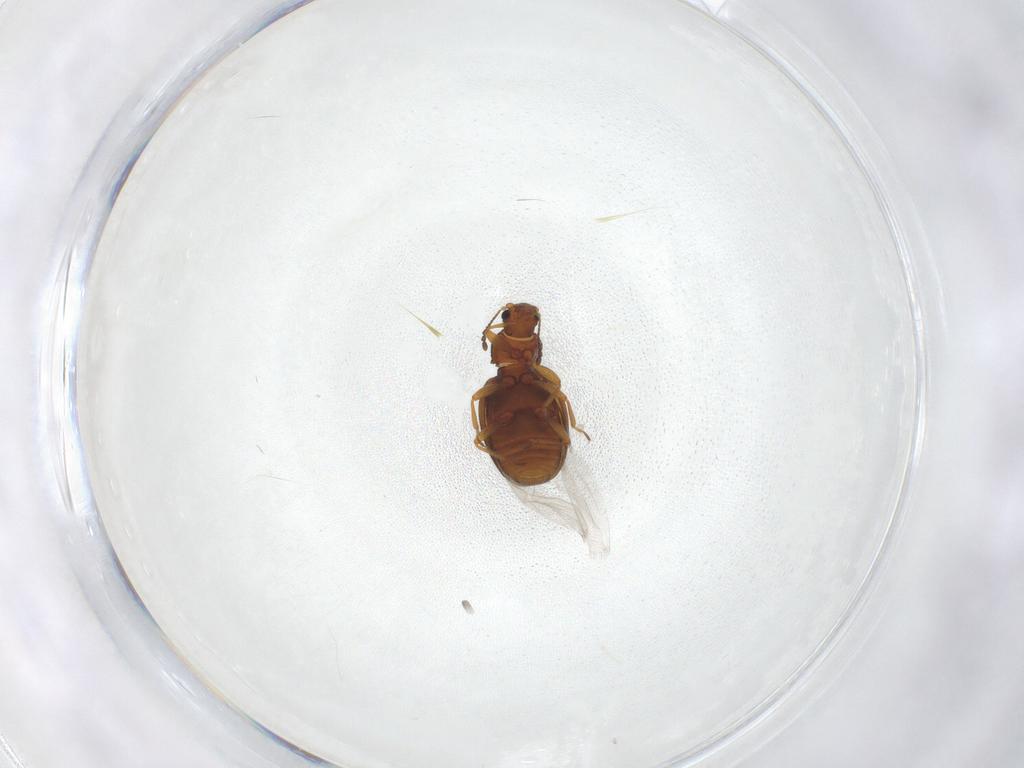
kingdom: Animalia
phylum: Arthropoda
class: Insecta
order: Coleoptera
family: Latridiidae
